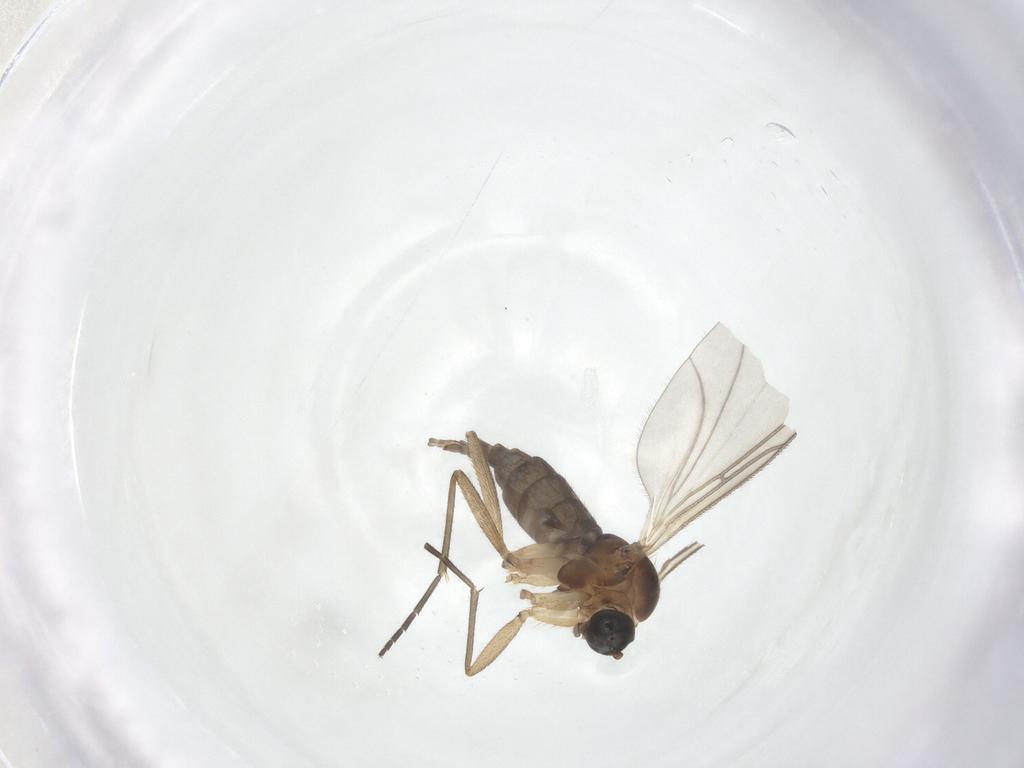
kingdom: Animalia
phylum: Arthropoda
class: Insecta
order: Diptera
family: Sciaridae
